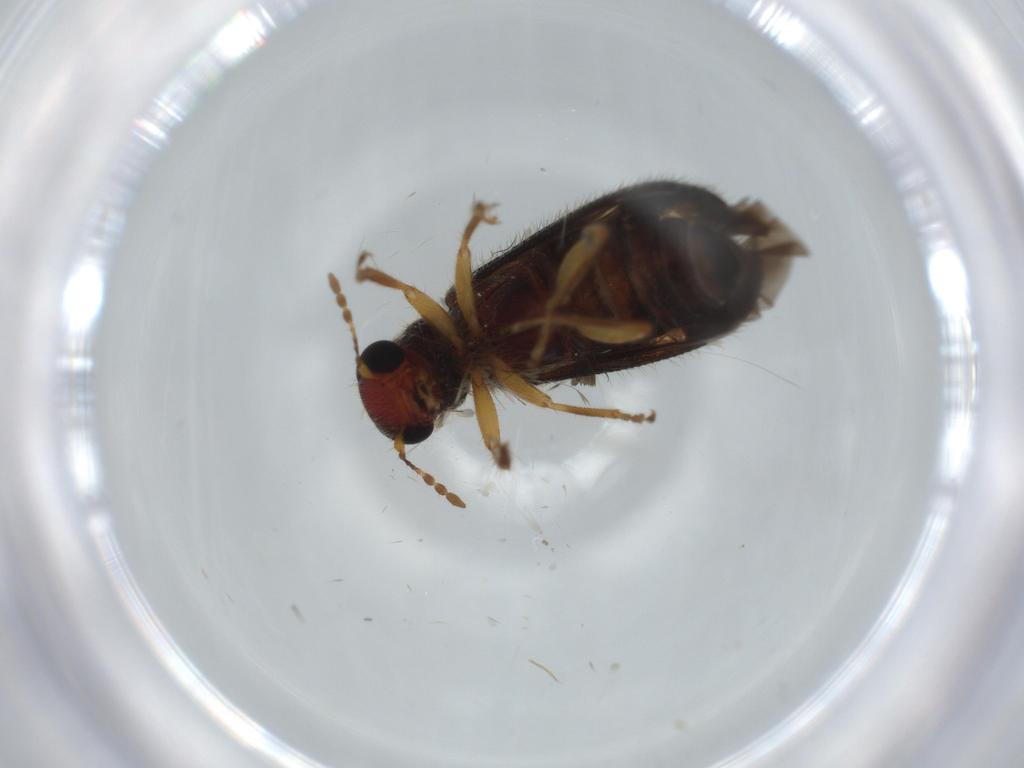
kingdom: Animalia
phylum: Arthropoda
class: Insecta
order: Coleoptera
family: Cleridae
